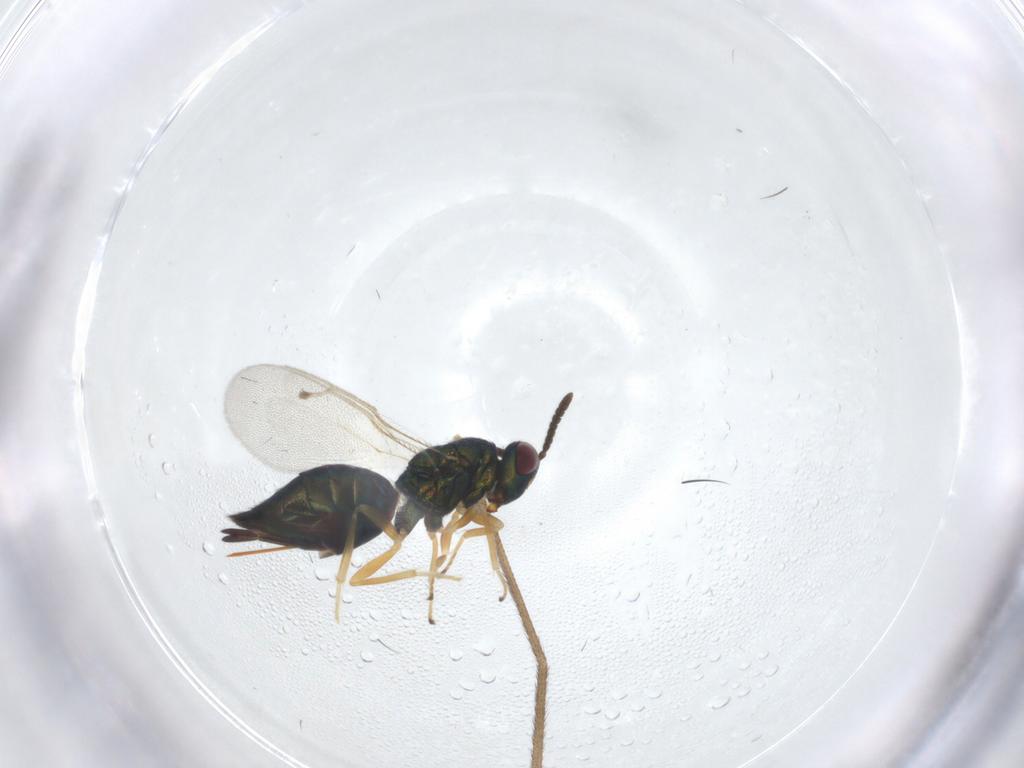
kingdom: Animalia
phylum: Arthropoda
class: Insecta
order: Hymenoptera
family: Pteromalidae
